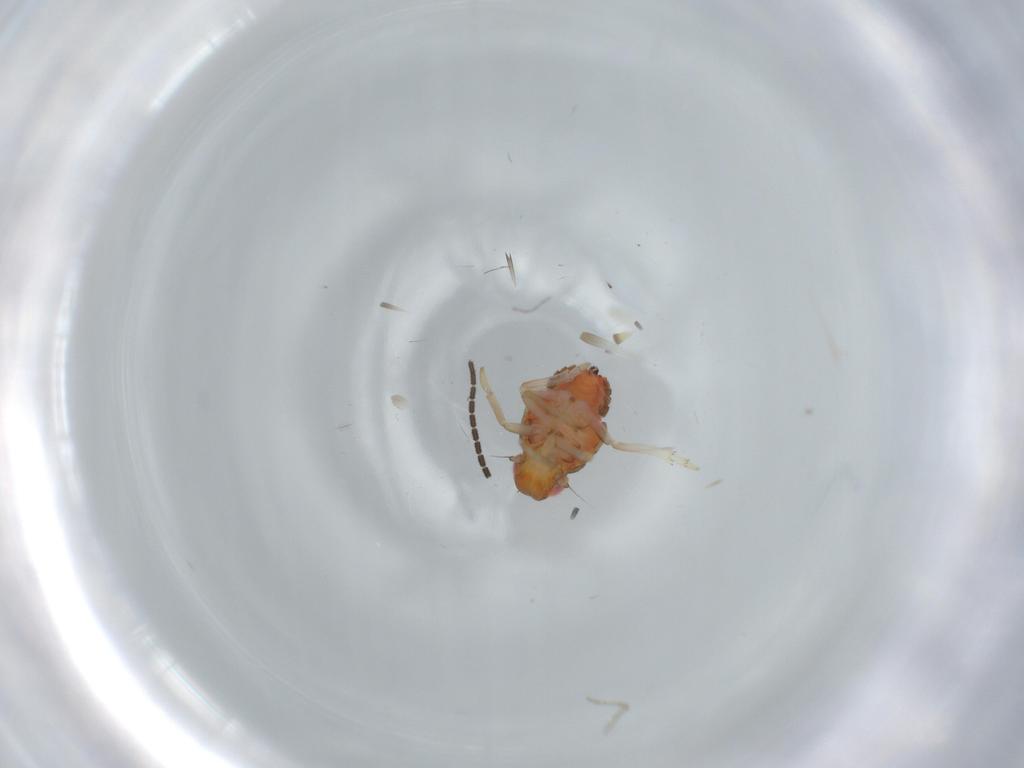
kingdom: Animalia
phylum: Arthropoda
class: Insecta
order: Hemiptera
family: Issidae
